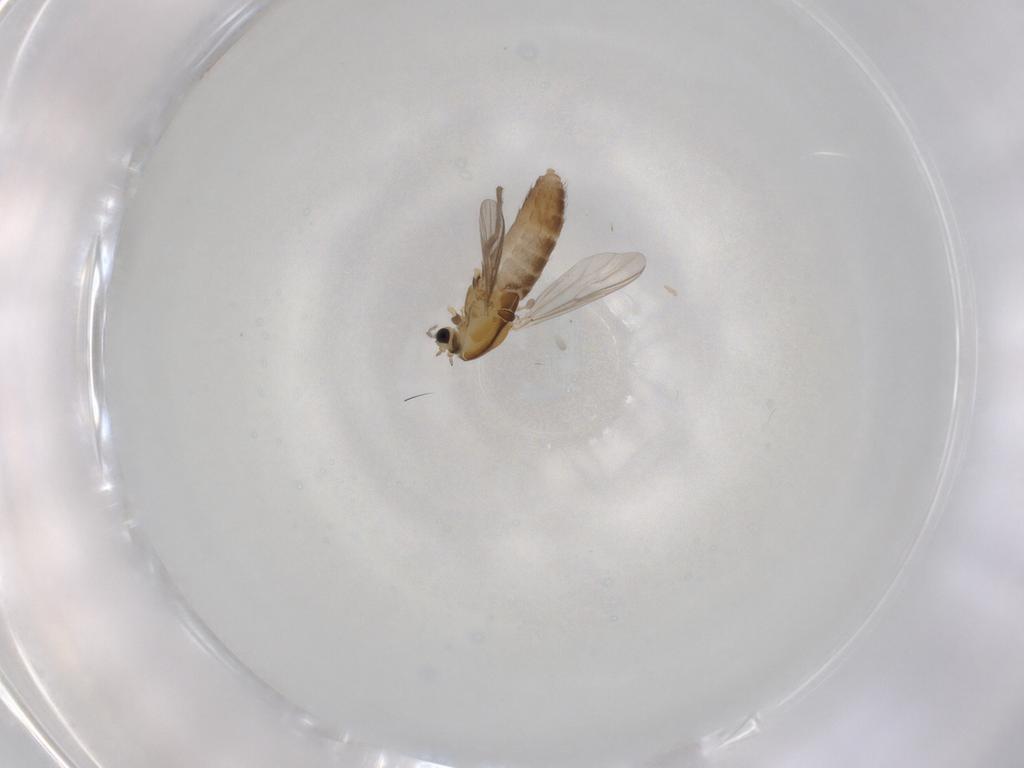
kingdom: Animalia
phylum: Arthropoda
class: Insecta
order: Diptera
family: Chironomidae
